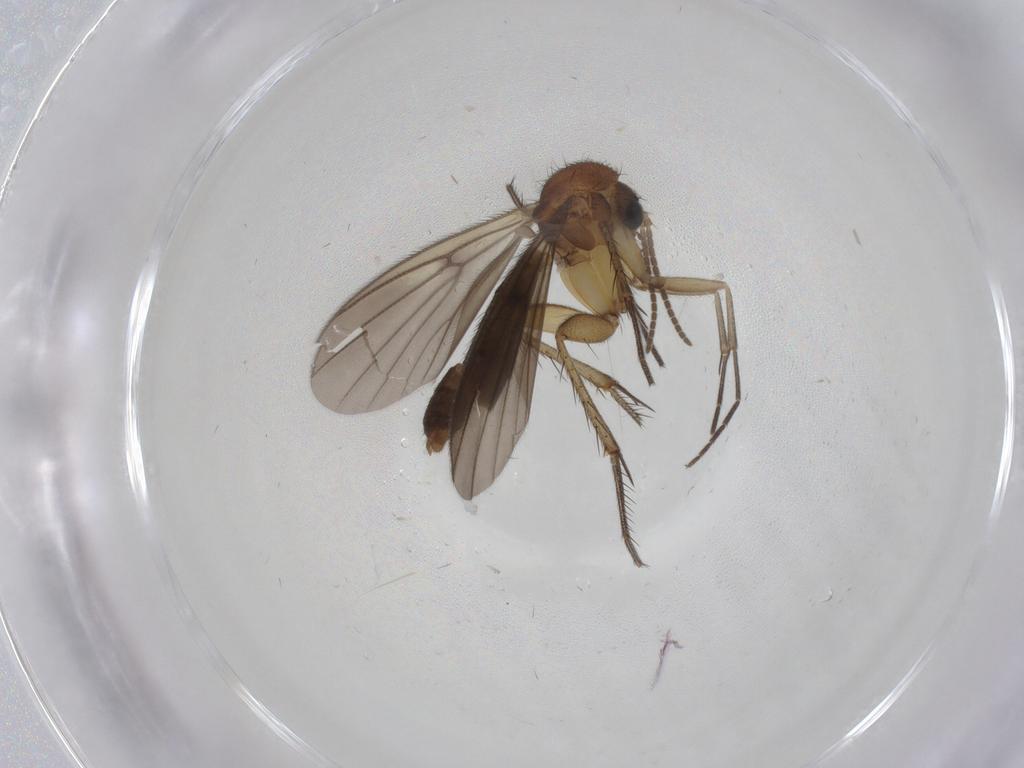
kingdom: Animalia
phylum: Arthropoda
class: Insecta
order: Diptera
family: Mycetophilidae
